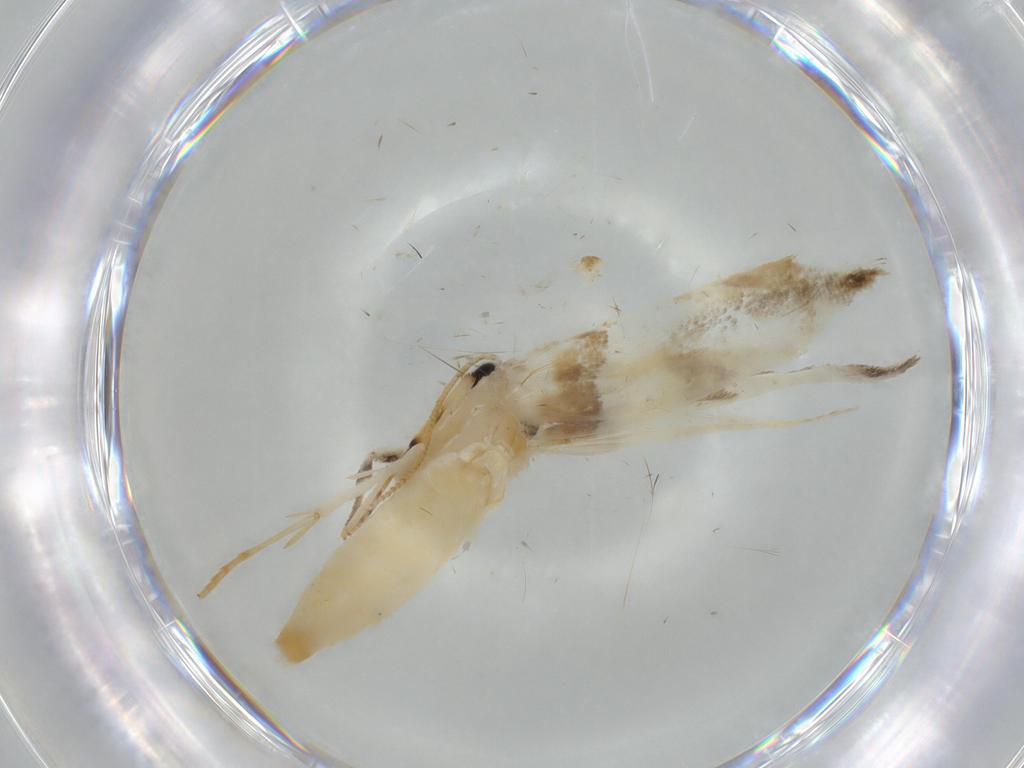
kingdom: Animalia
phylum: Arthropoda
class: Insecta
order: Lepidoptera
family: Tineidae
